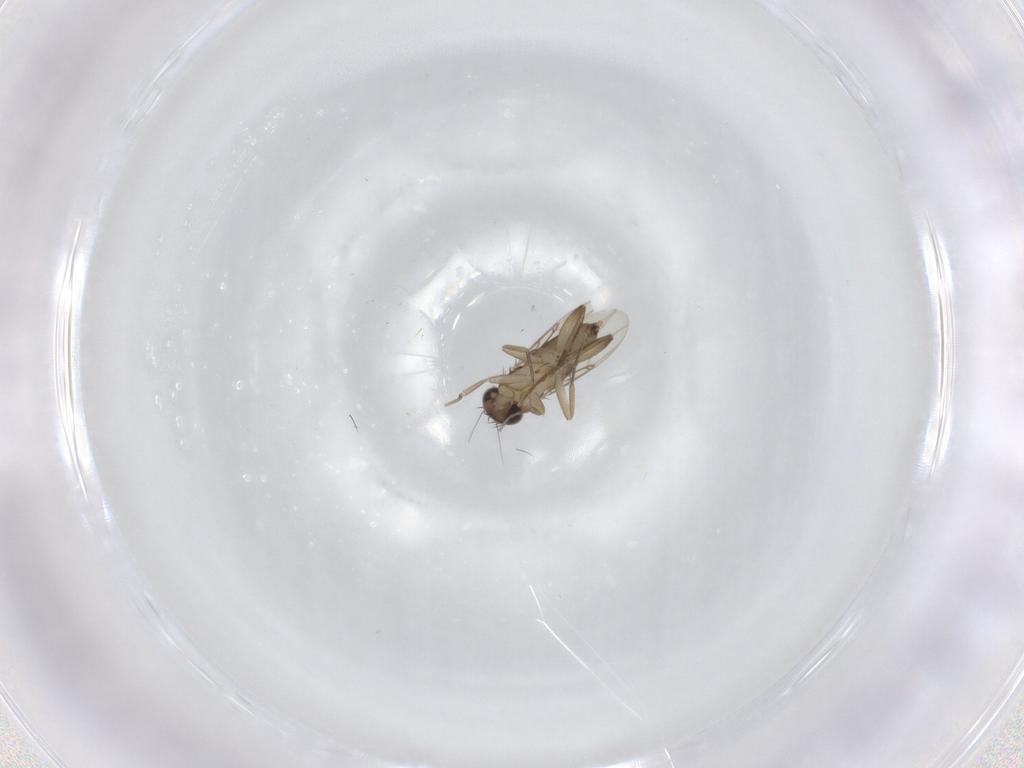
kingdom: Animalia
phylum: Arthropoda
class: Insecta
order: Diptera
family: Phoridae
